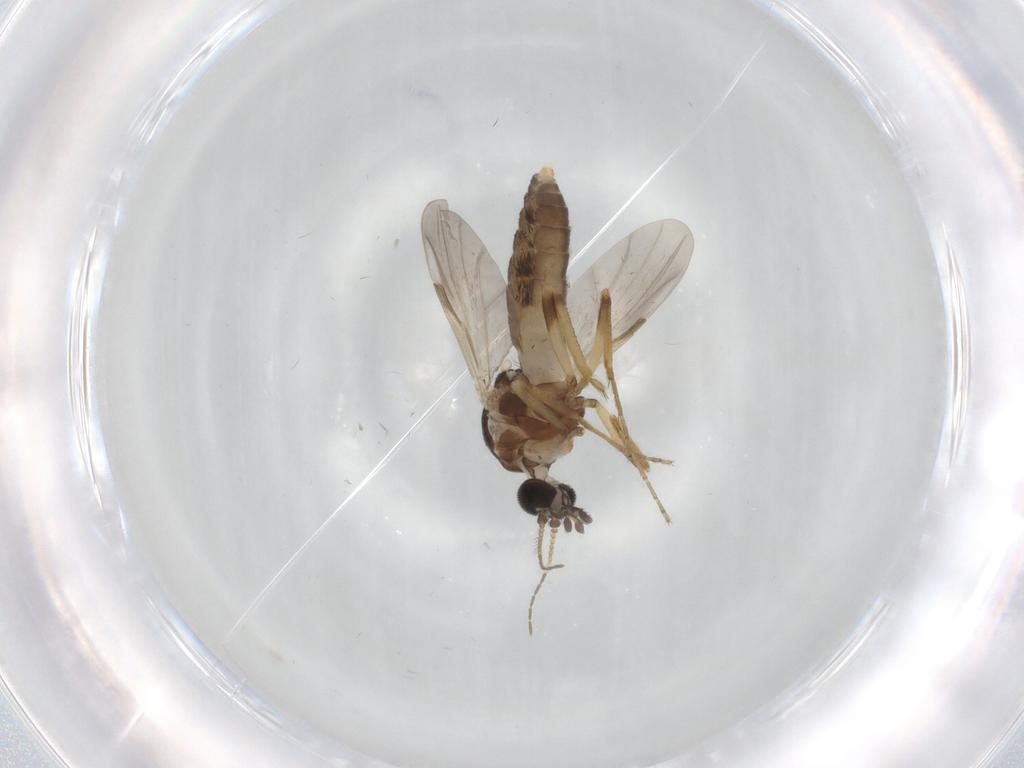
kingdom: Animalia
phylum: Arthropoda
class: Insecta
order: Diptera
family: Ceratopogonidae
